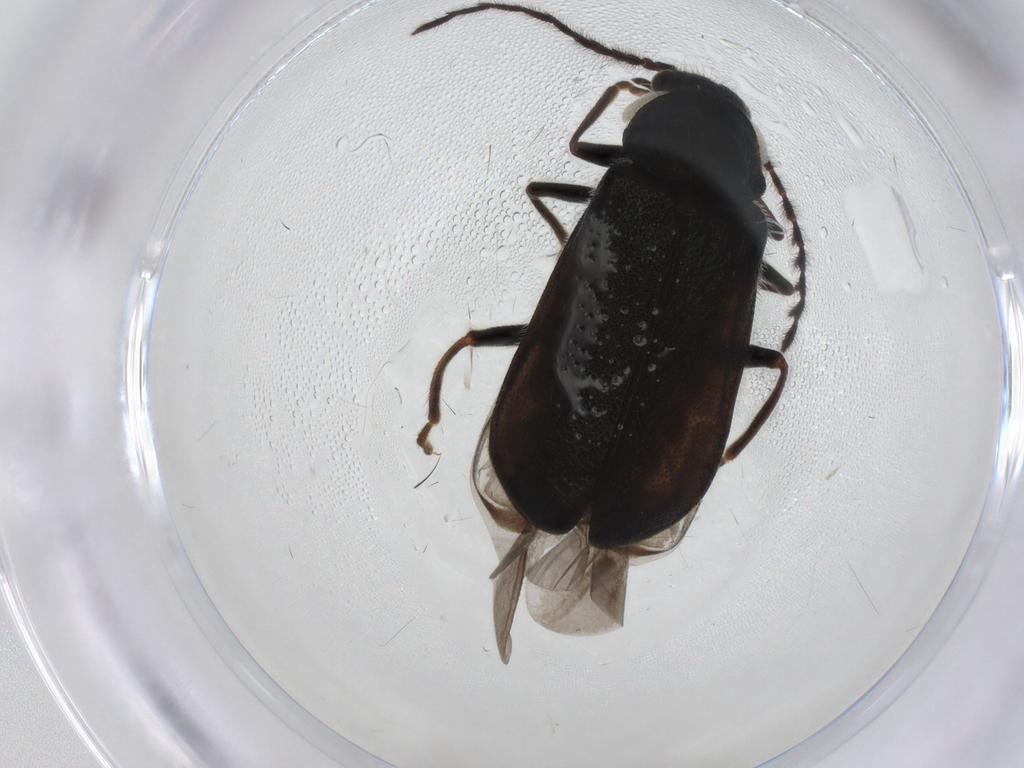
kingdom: Animalia
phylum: Arthropoda
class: Insecta
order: Coleoptera
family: Melyridae
